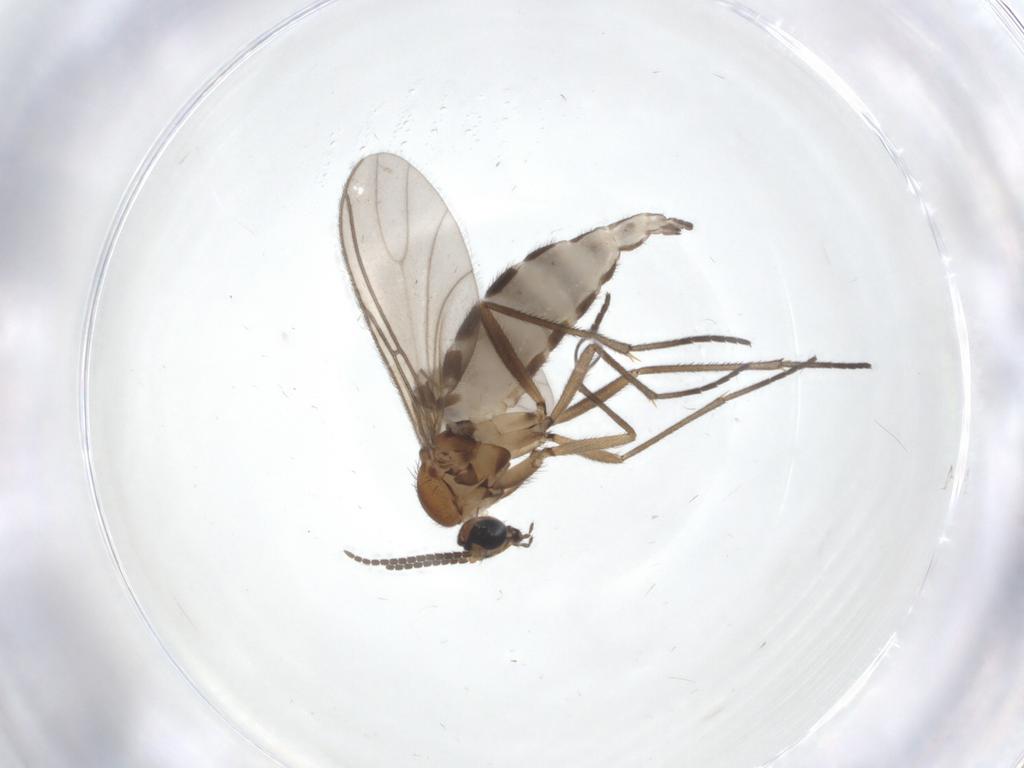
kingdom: Animalia
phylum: Arthropoda
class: Insecta
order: Diptera
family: Sciaridae
